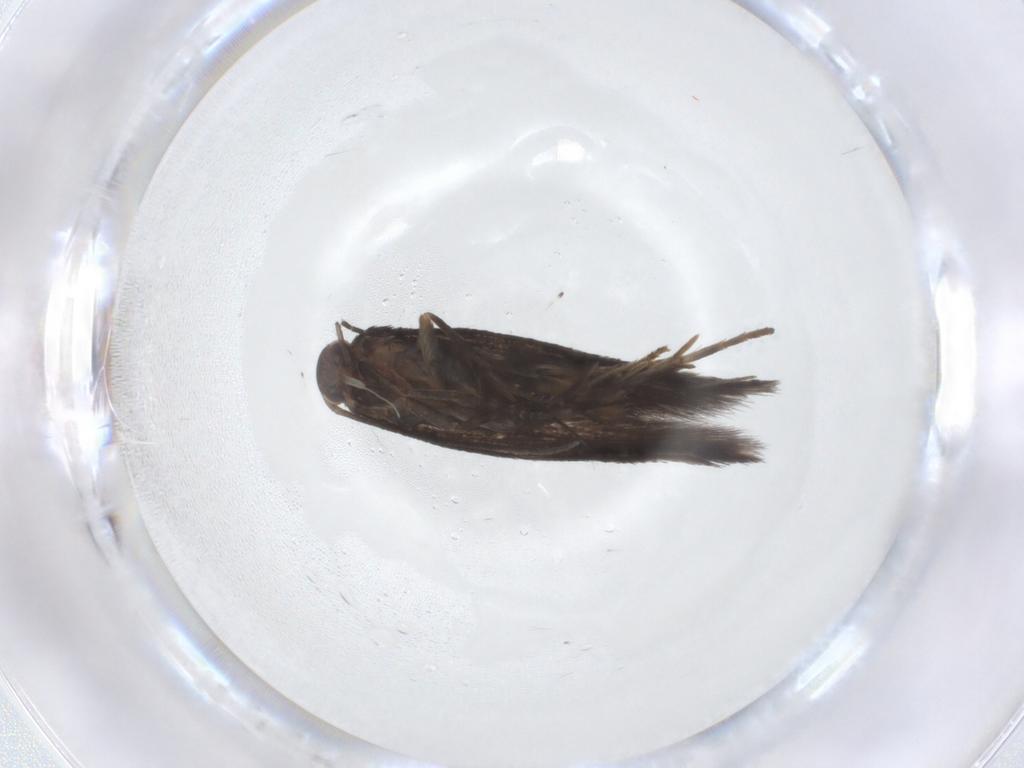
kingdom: Animalia
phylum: Arthropoda
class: Insecta
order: Lepidoptera
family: Elachistidae
